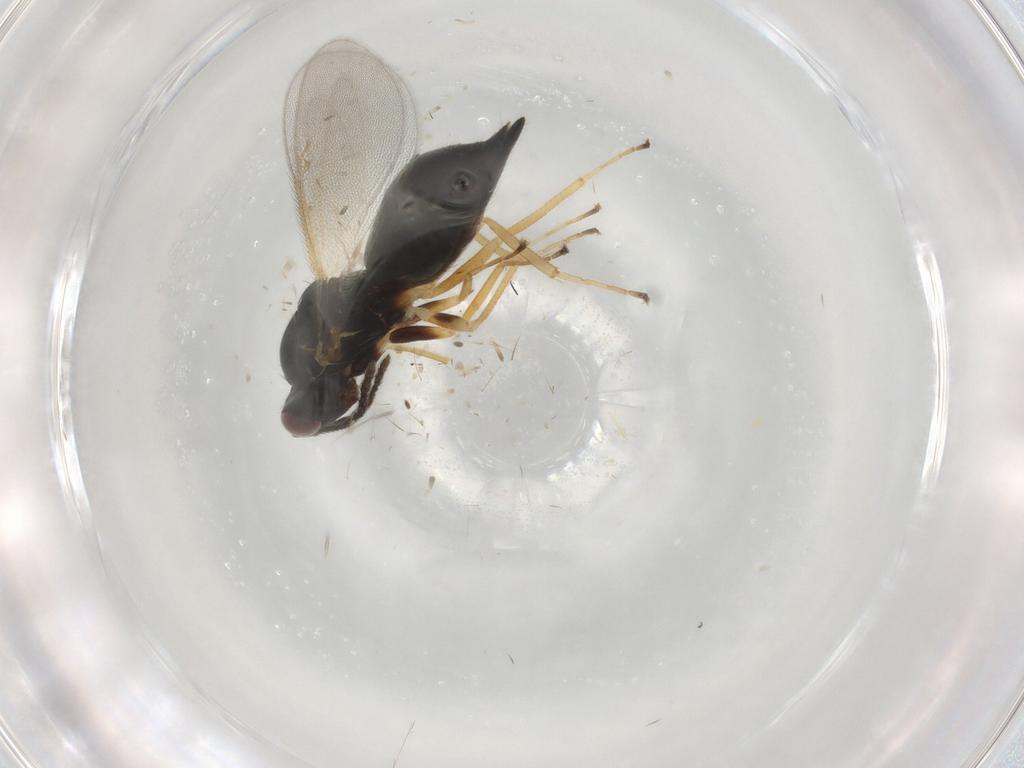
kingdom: Animalia
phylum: Arthropoda
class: Insecta
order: Hymenoptera
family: Eulophidae
